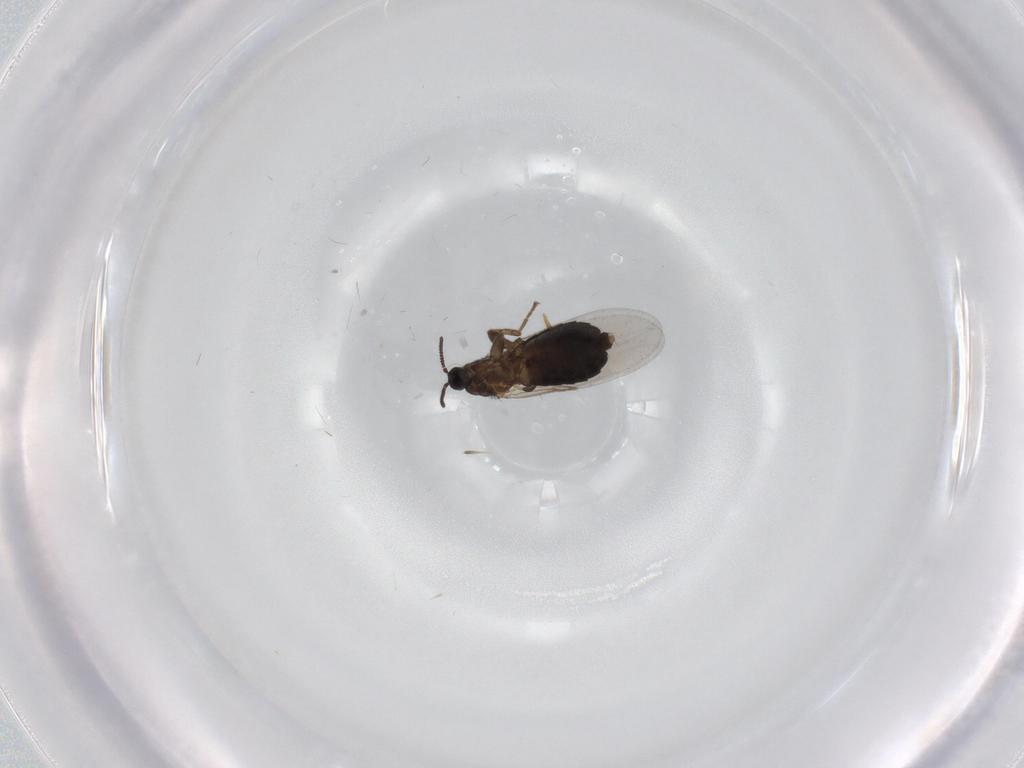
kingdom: Animalia
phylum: Arthropoda
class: Insecta
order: Diptera
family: Scatopsidae
